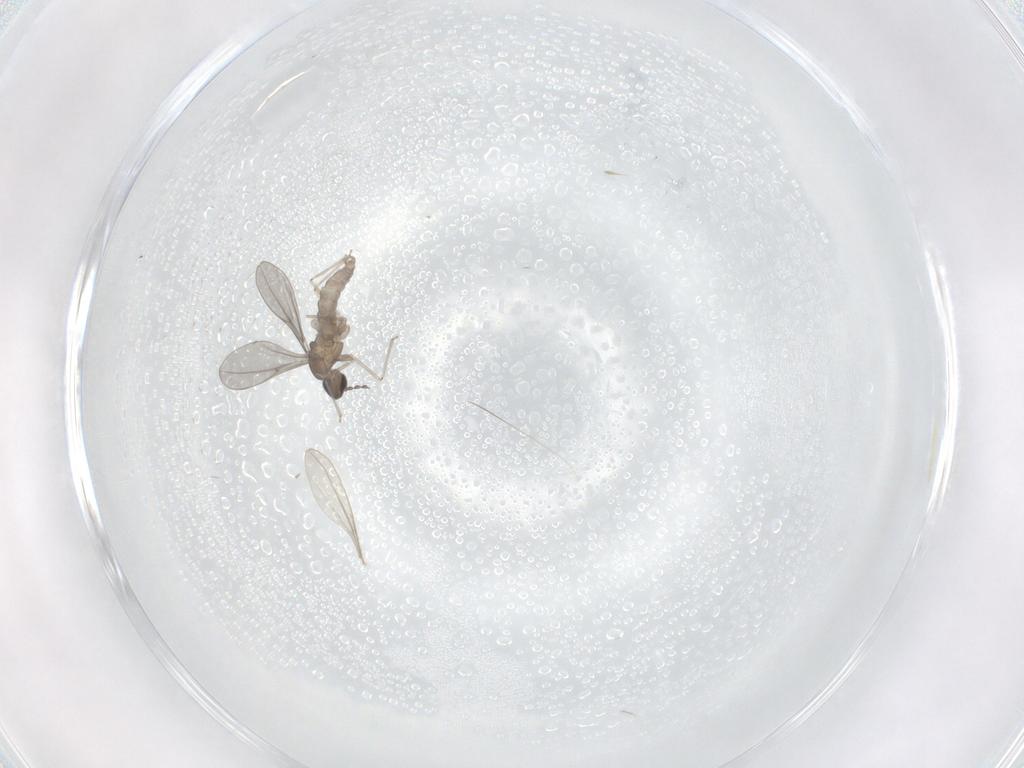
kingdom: Animalia
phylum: Arthropoda
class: Insecta
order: Diptera
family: Cecidomyiidae
